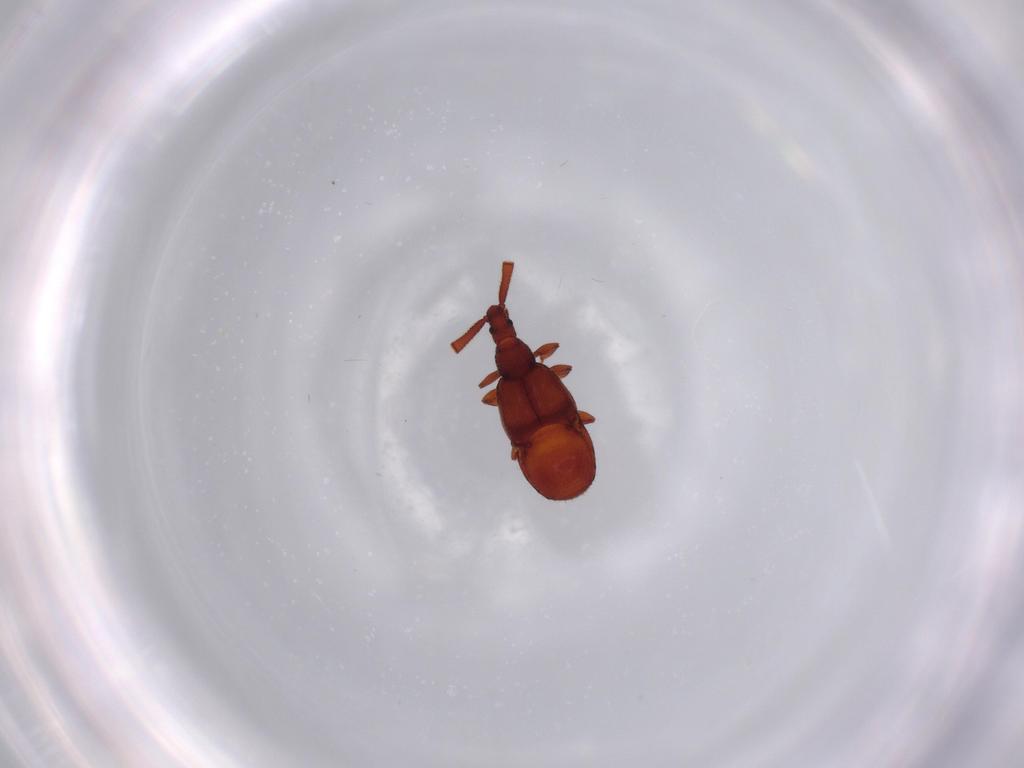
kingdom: Animalia
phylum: Arthropoda
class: Insecta
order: Coleoptera
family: Staphylinidae
